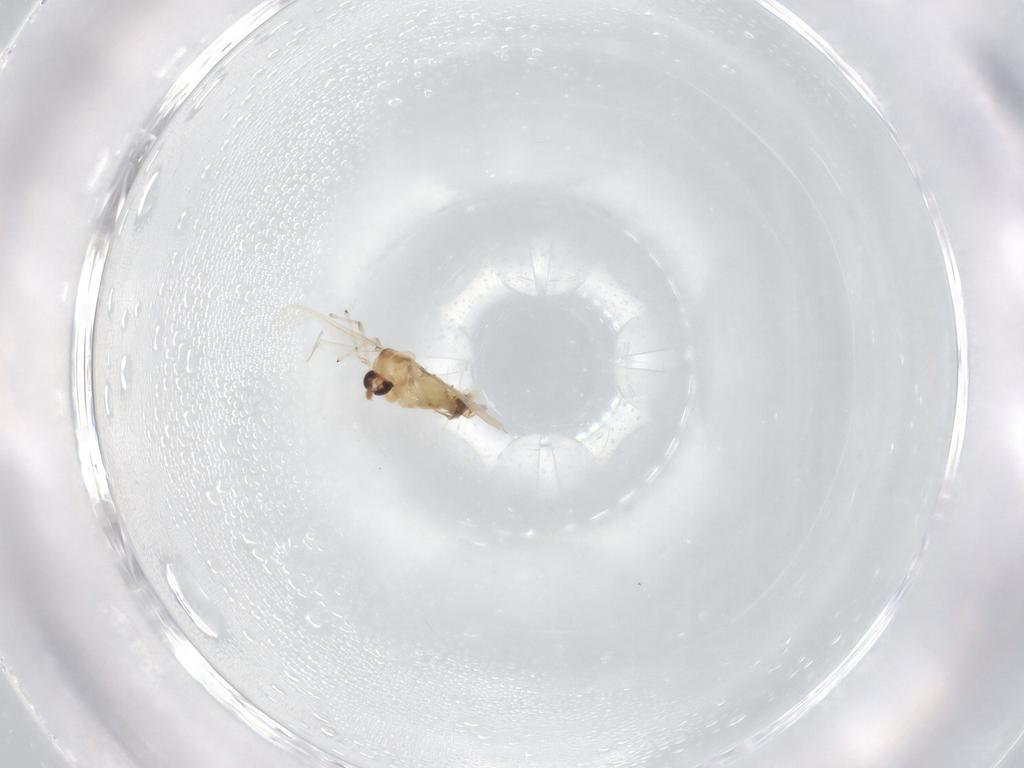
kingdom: Animalia
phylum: Arthropoda
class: Insecta
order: Diptera
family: Chironomidae
